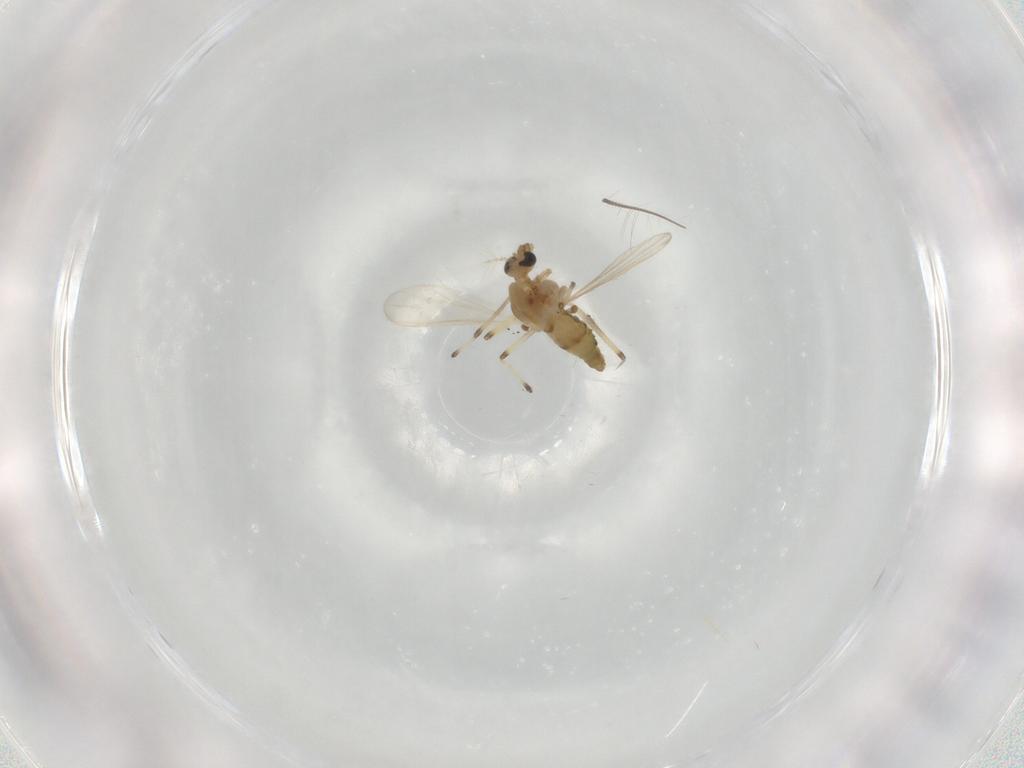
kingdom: Animalia
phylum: Arthropoda
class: Insecta
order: Diptera
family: Chironomidae
